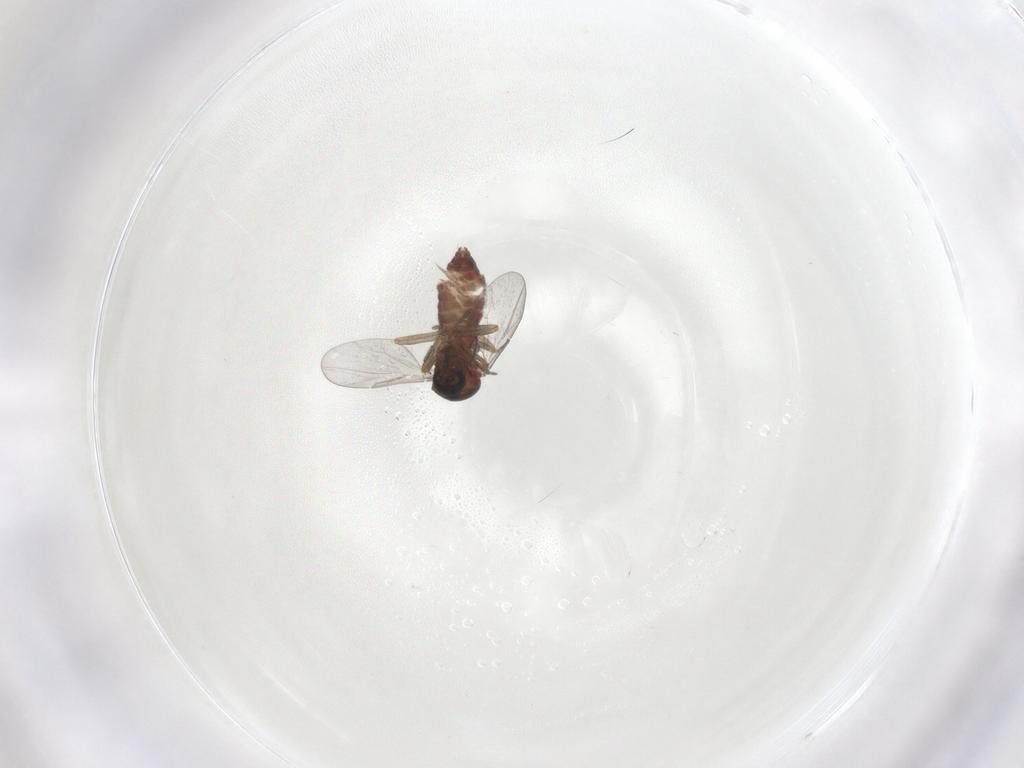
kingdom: Animalia
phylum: Arthropoda
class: Insecta
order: Diptera
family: Ceratopogonidae
